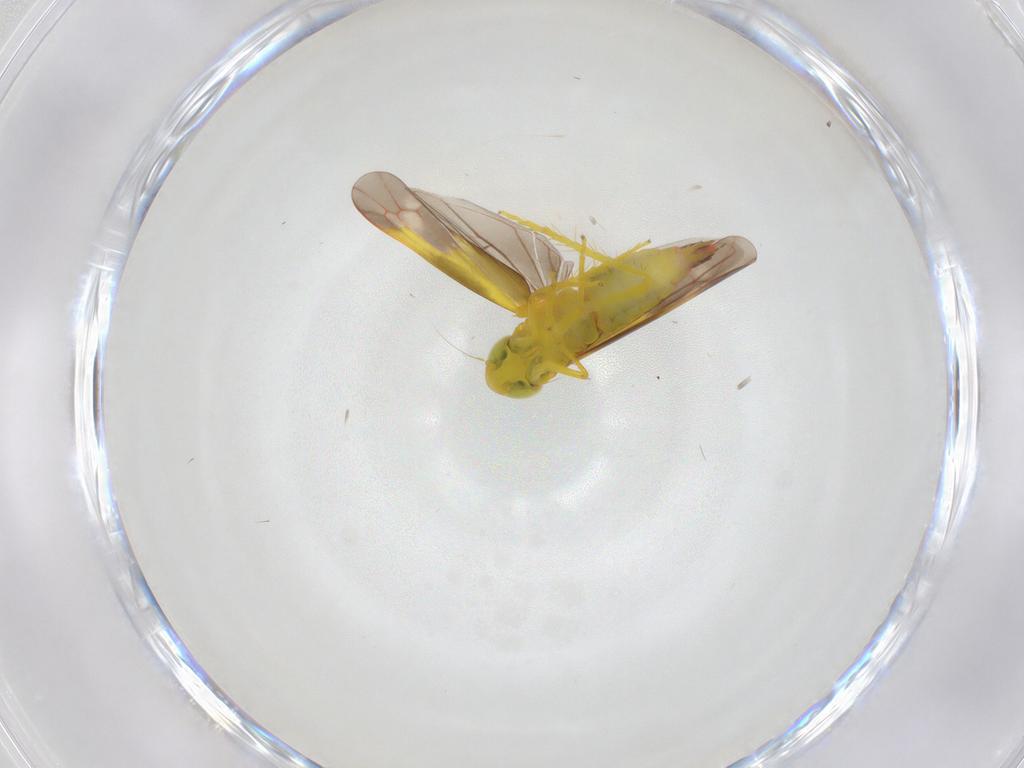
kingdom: Animalia
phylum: Arthropoda
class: Insecta
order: Hemiptera
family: Cicadellidae
